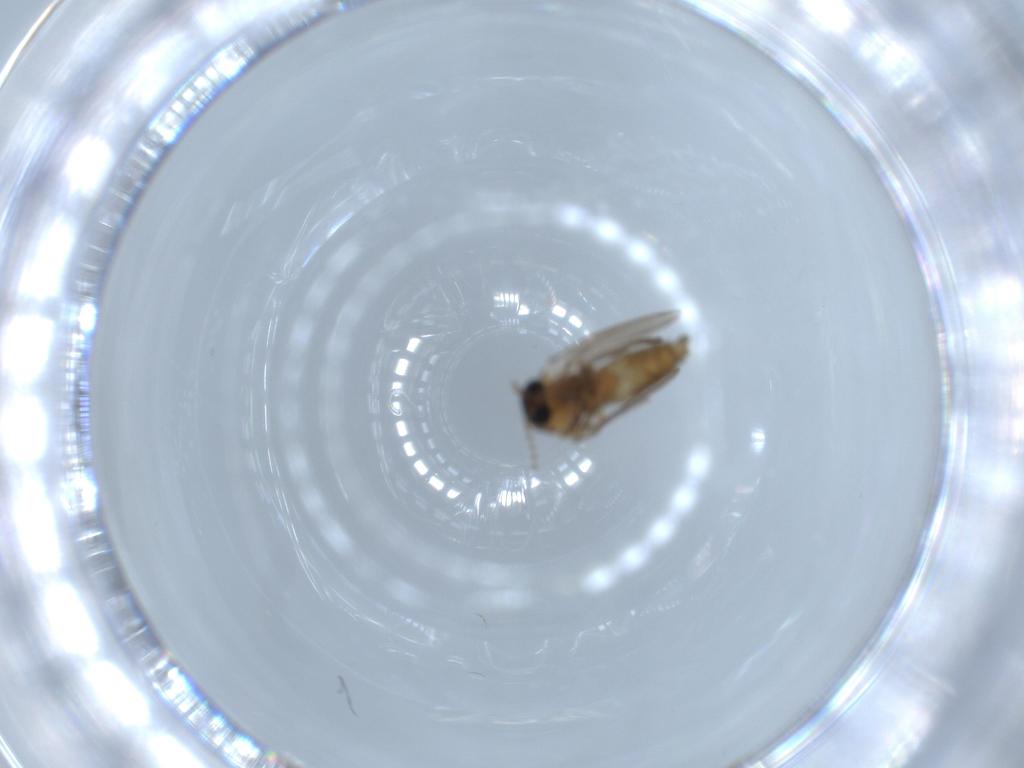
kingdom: Animalia
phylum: Arthropoda
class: Insecta
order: Diptera
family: Psychodidae
